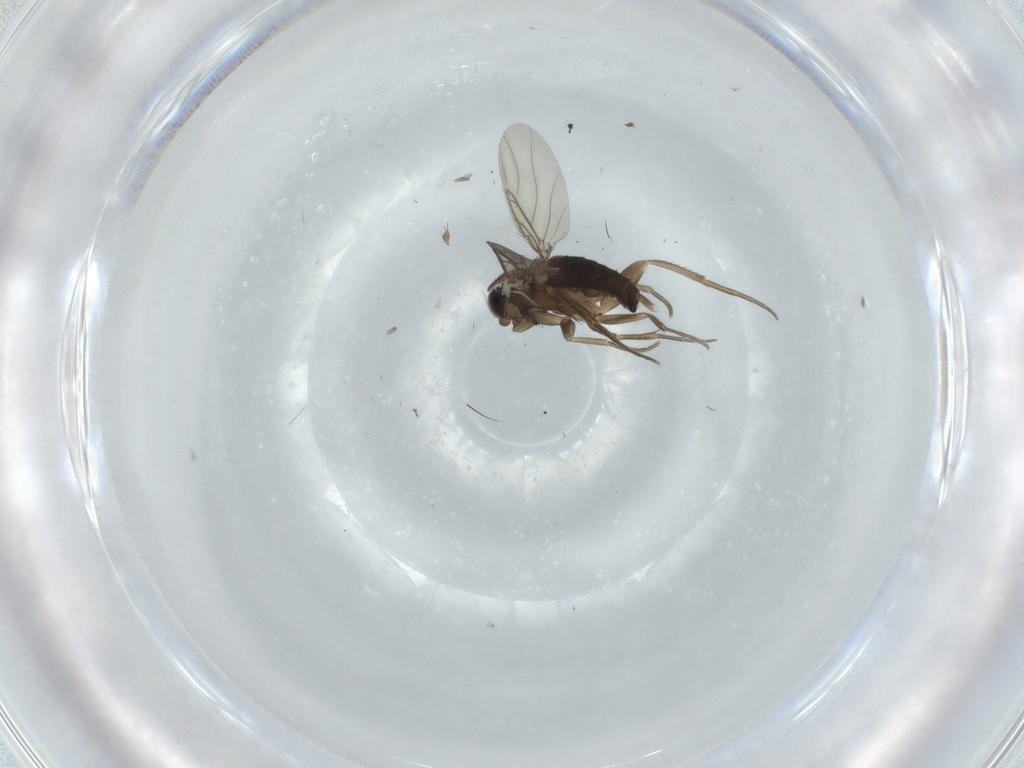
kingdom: Animalia
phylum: Arthropoda
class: Insecta
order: Diptera
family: Phoridae
